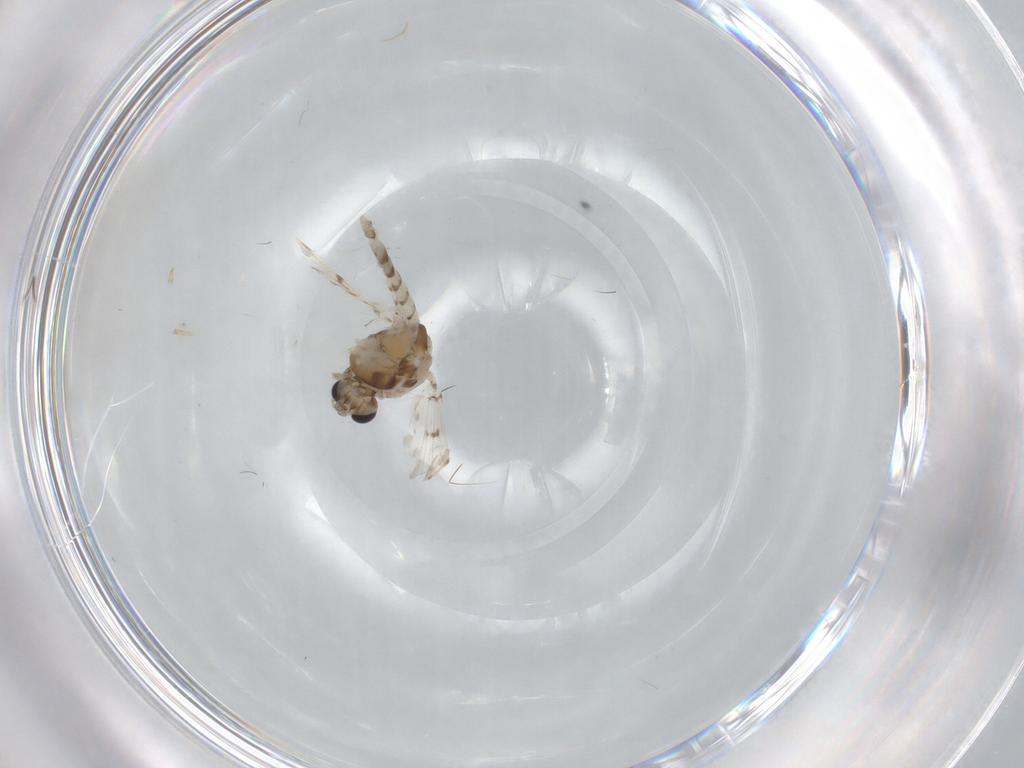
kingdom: Animalia
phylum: Arthropoda
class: Insecta
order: Diptera
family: Chironomidae
